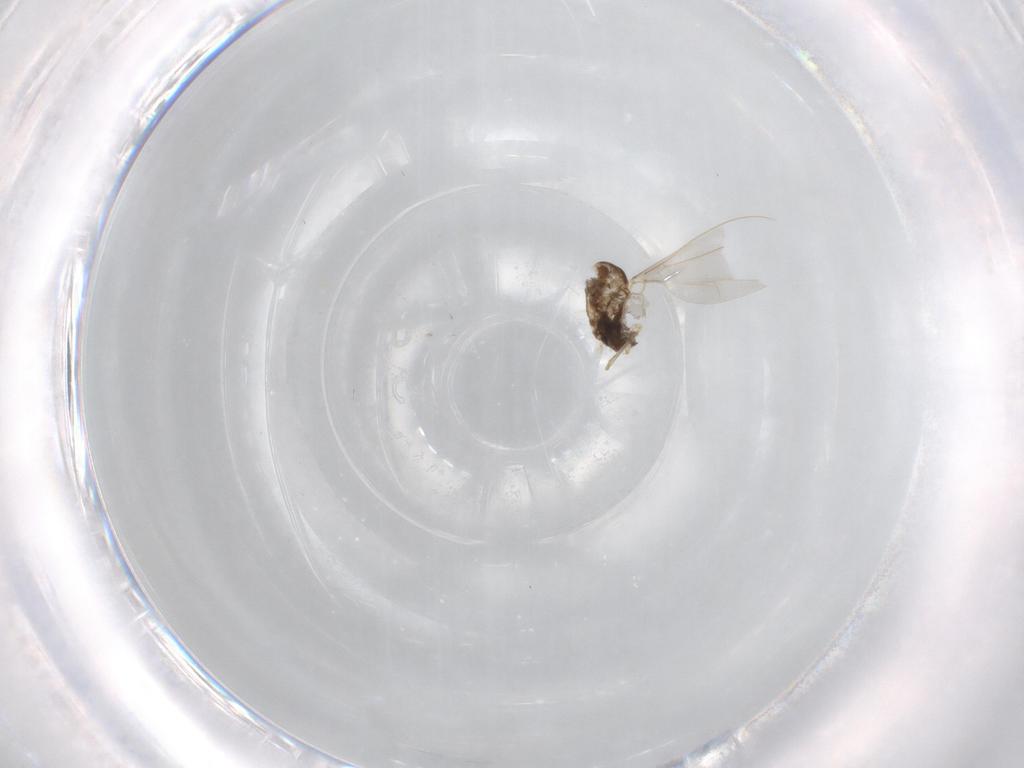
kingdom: Animalia
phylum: Arthropoda
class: Insecta
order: Diptera
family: Cecidomyiidae
